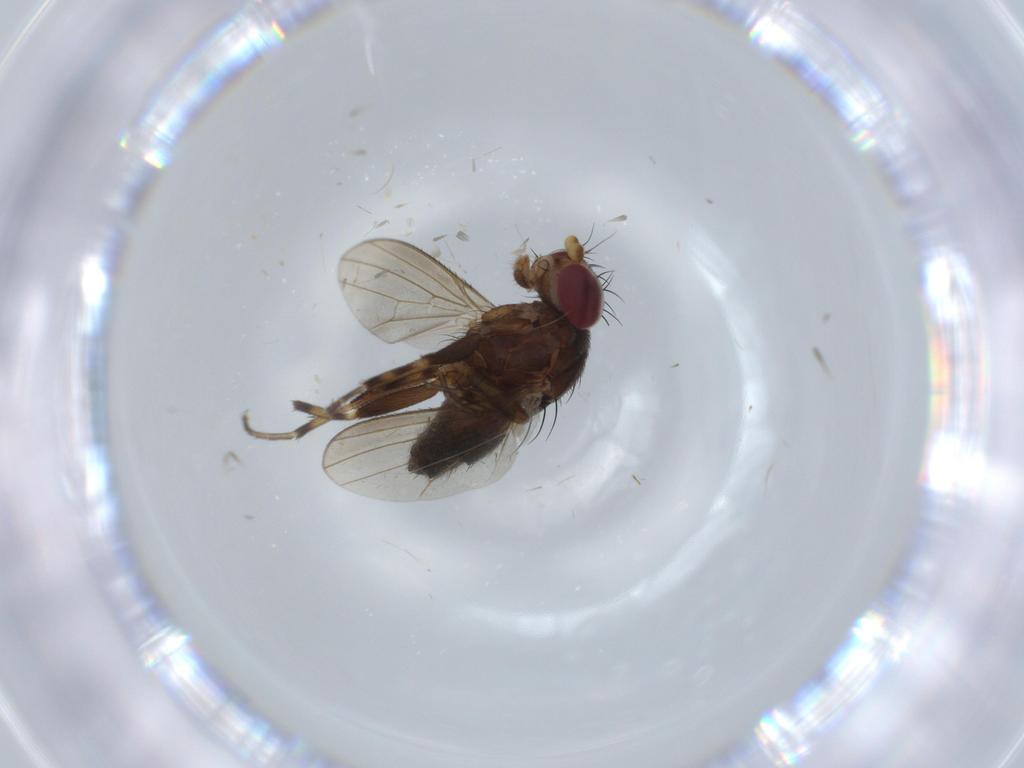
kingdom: Animalia
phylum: Arthropoda
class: Insecta
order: Diptera
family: Heleomyzidae
